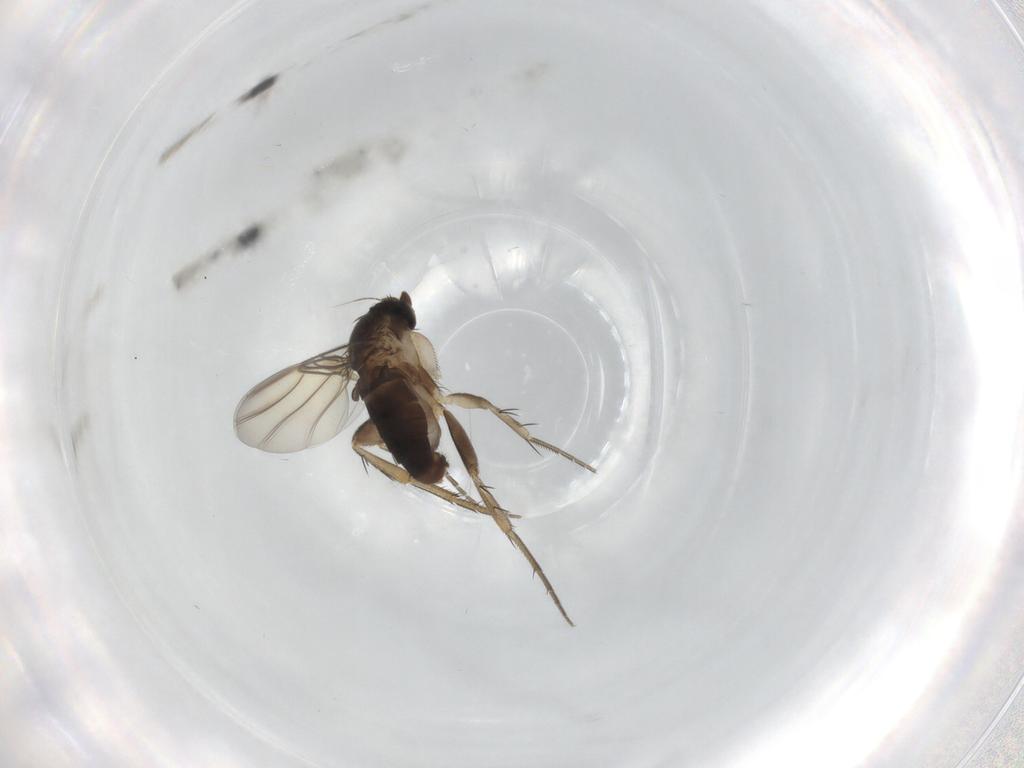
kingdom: Animalia
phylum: Arthropoda
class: Insecta
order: Diptera
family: Phoridae
